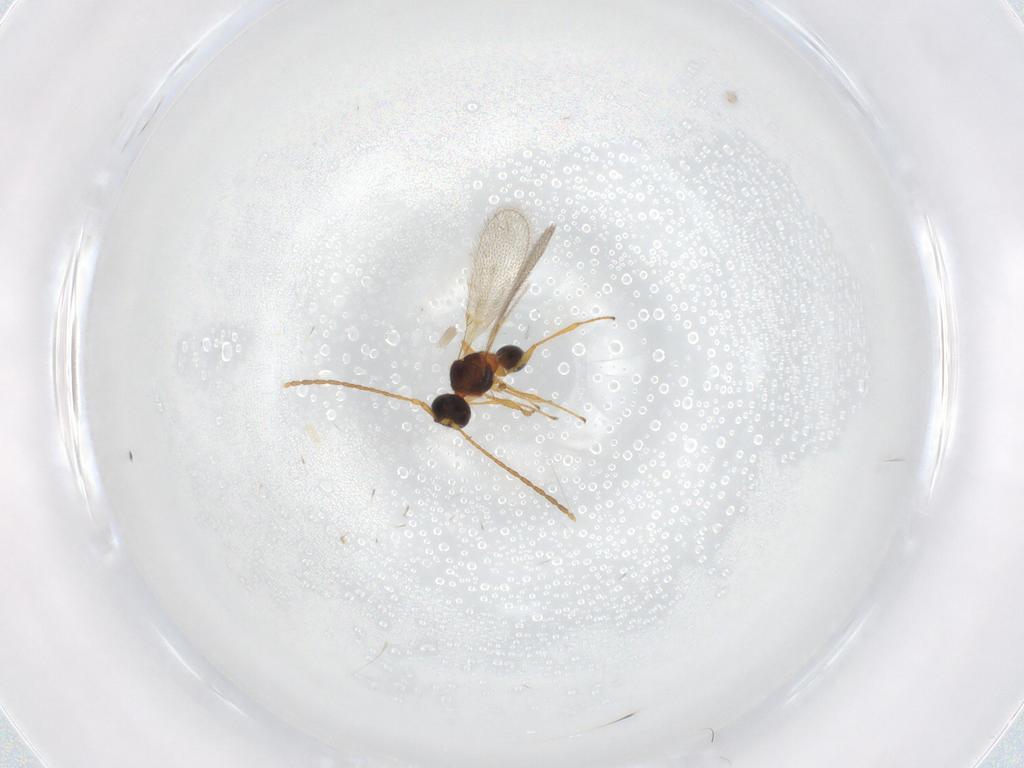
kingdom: Animalia
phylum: Arthropoda
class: Insecta
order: Hymenoptera
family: Diapriidae
